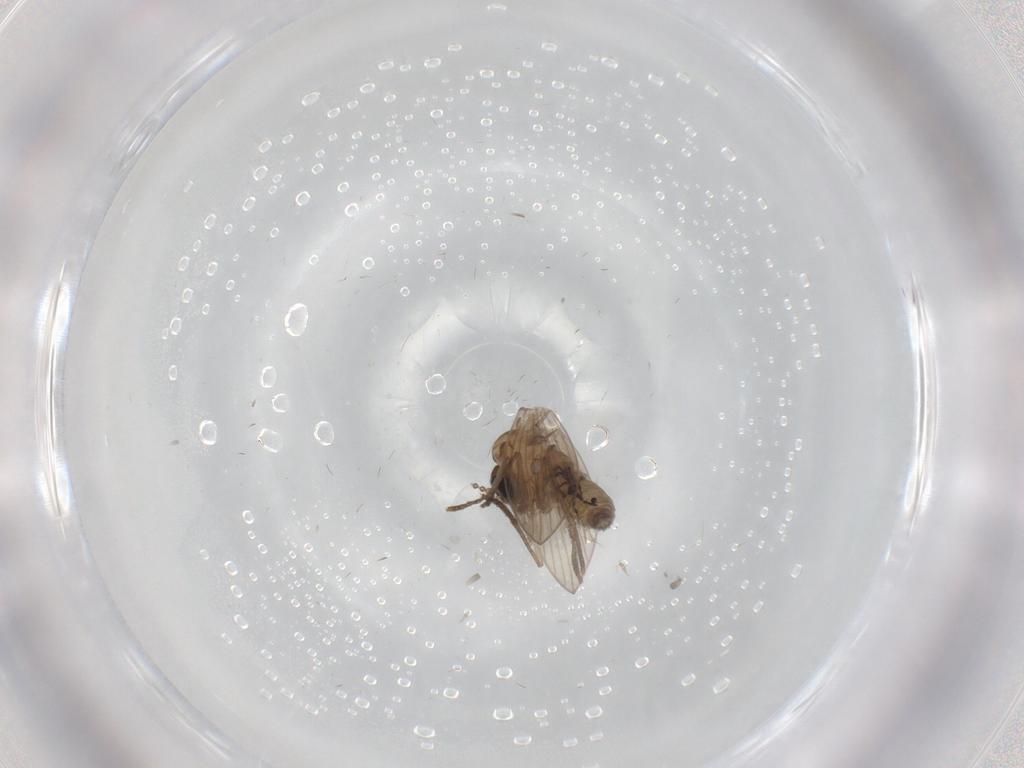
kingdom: Animalia
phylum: Arthropoda
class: Insecta
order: Diptera
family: Psychodidae
